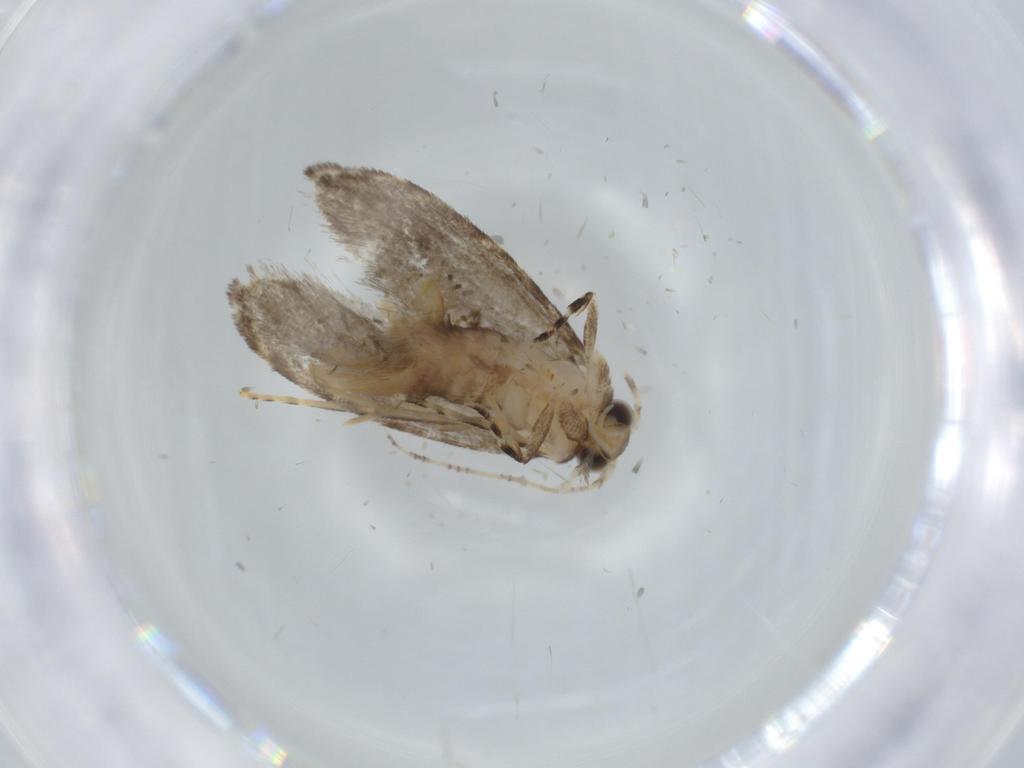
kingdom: Animalia
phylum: Arthropoda
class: Insecta
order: Lepidoptera
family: Tineidae
